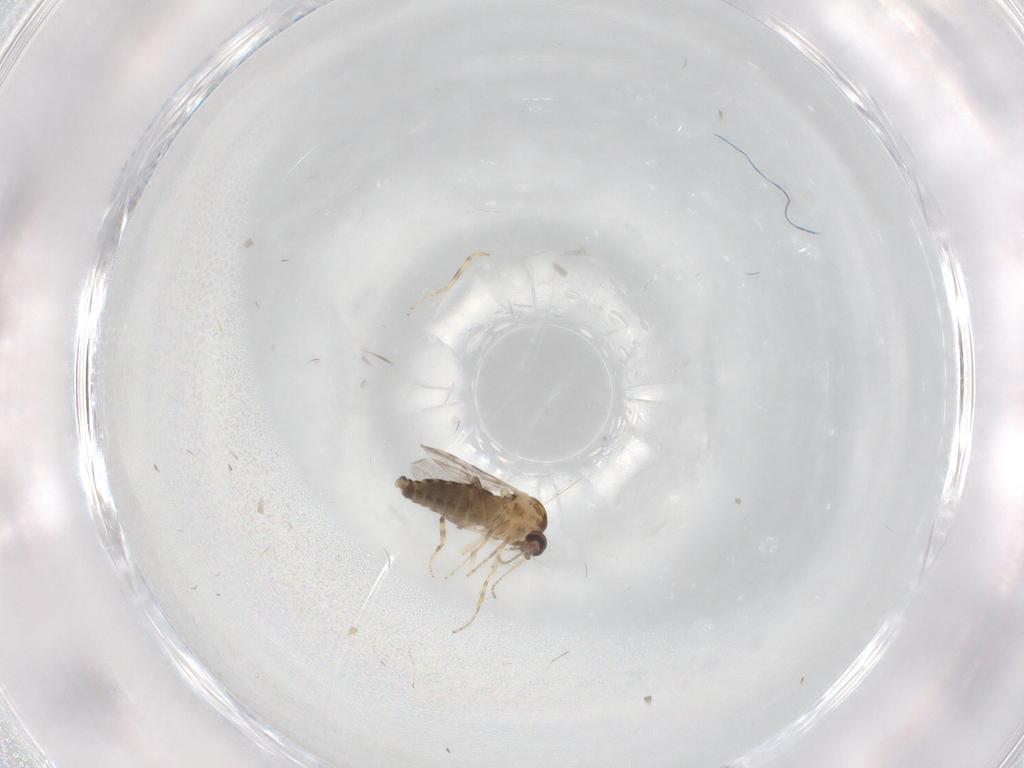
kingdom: Animalia
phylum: Arthropoda
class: Insecta
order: Diptera
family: Ceratopogonidae
